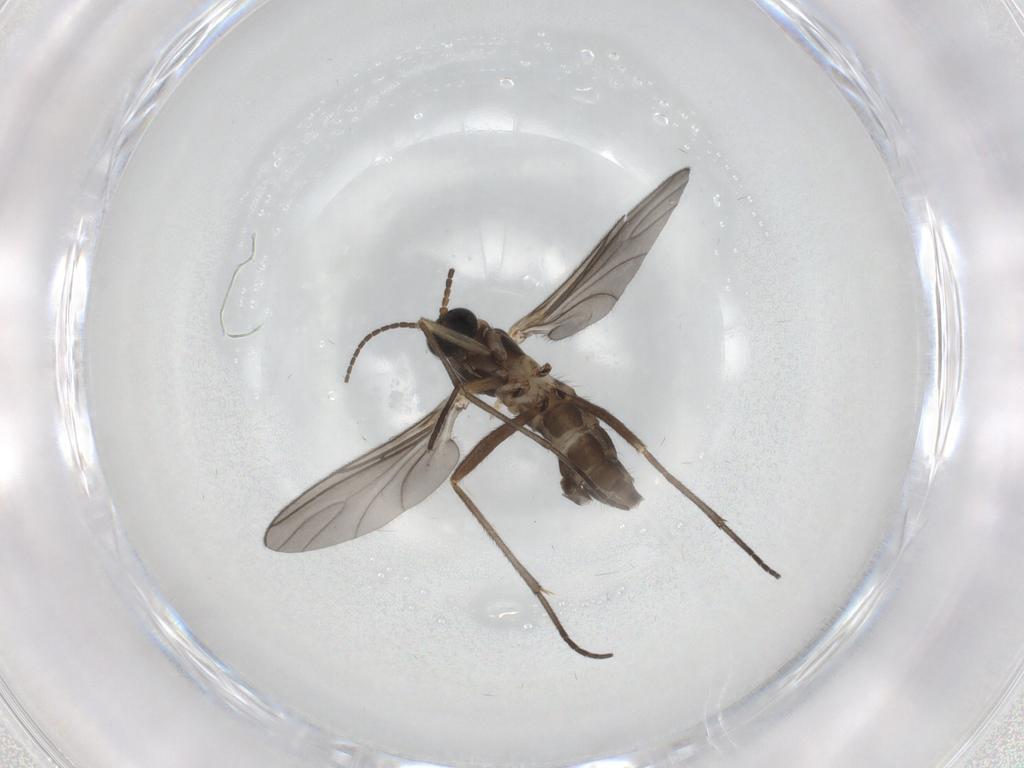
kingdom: Animalia
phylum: Arthropoda
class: Insecta
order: Diptera
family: Sciaridae
